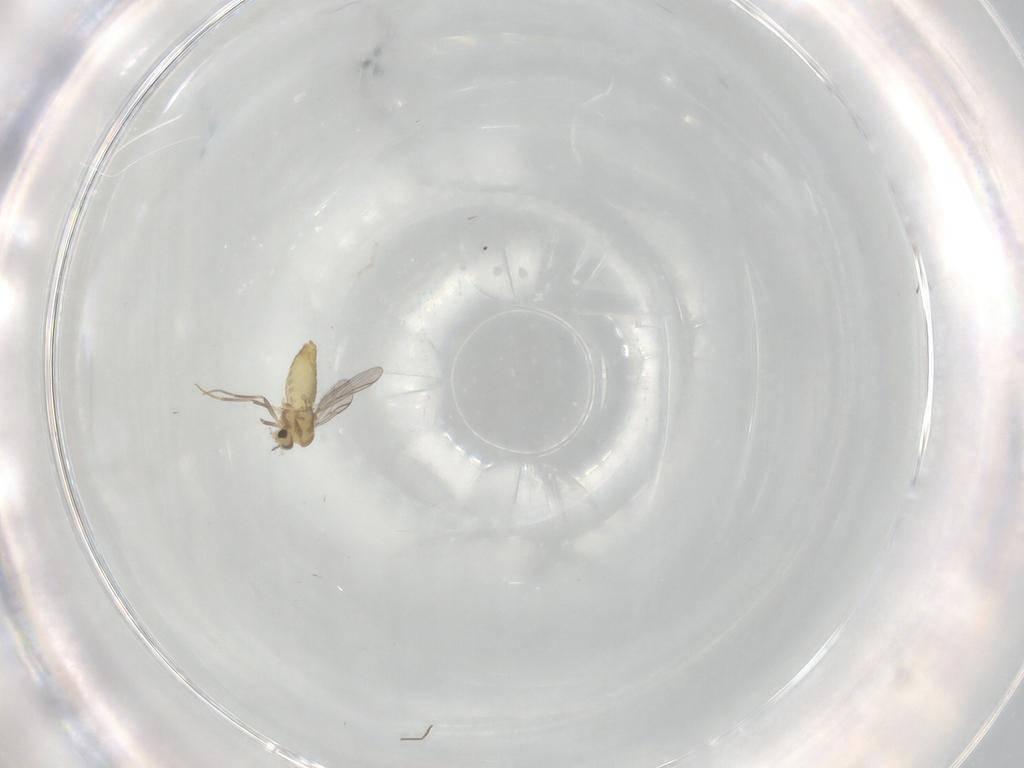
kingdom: Animalia
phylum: Arthropoda
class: Insecta
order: Diptera
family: Chironomidae
